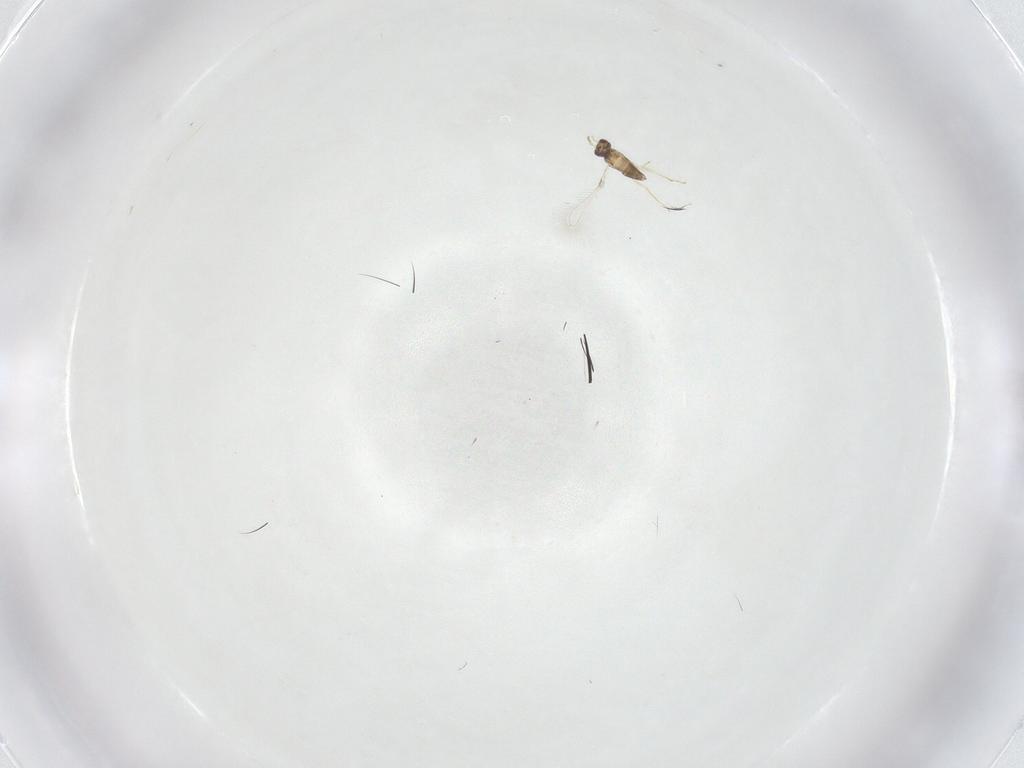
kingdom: Animalia
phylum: Arthropoda
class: Insecta
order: Hymenoptera
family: Mymaridae
